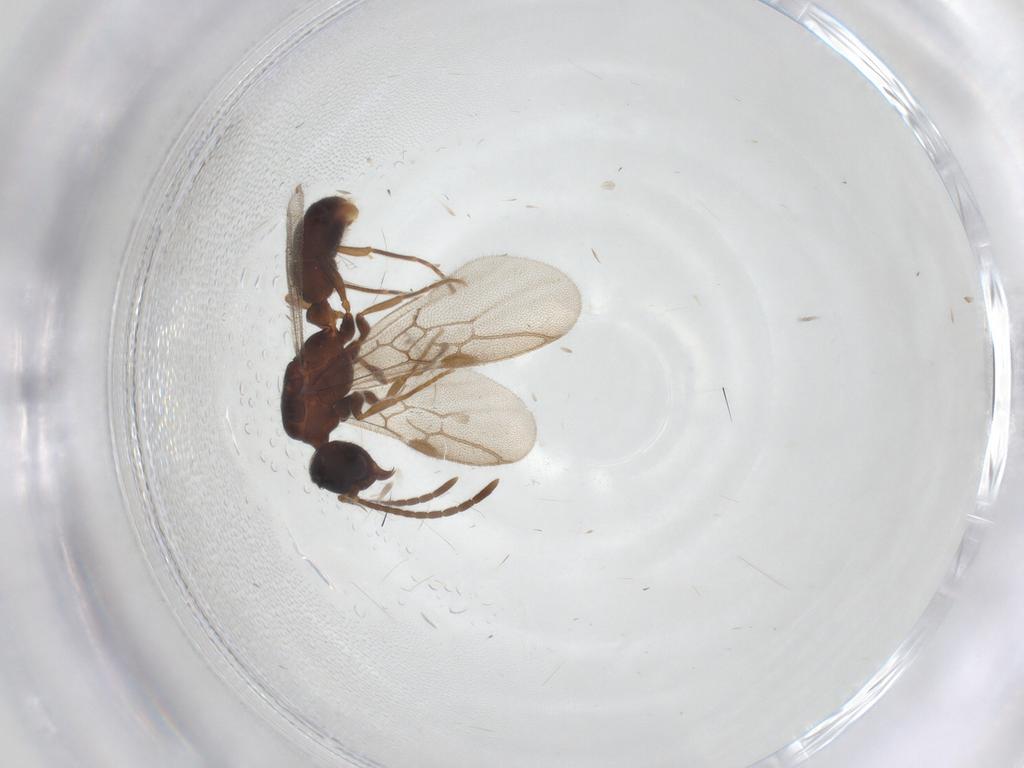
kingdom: Animalia
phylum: Arthropoda
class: Insecta
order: Hymenoptera
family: Formicidae
